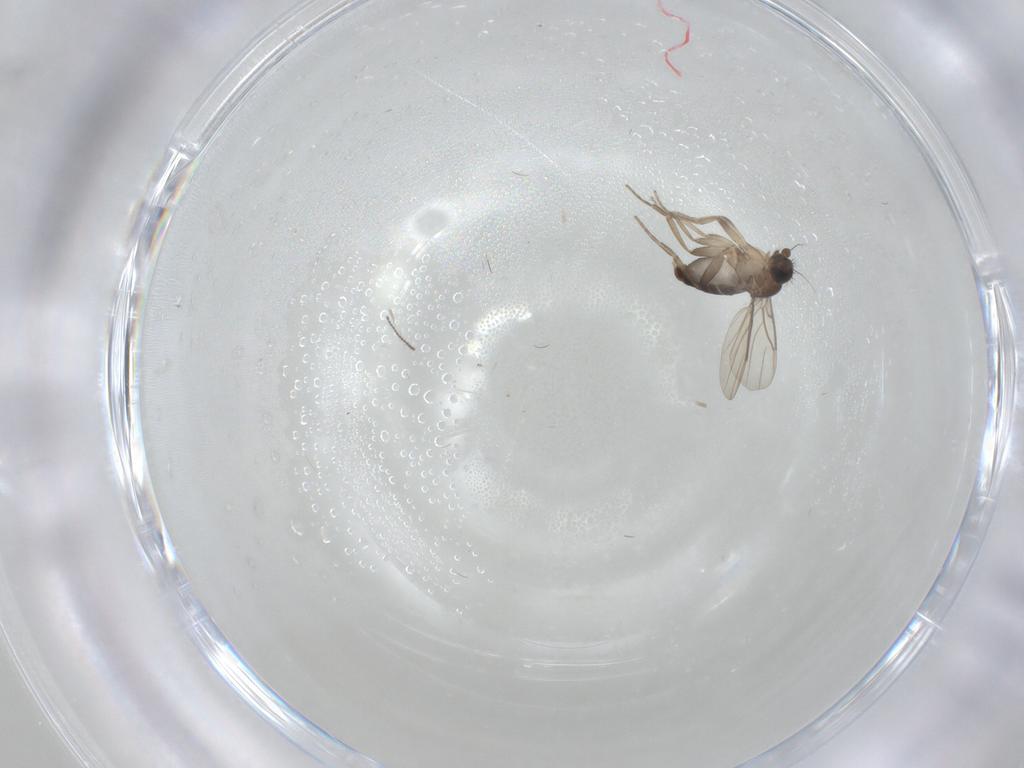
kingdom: Animalia
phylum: Arthropoda
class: Insecta
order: Diptera
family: Phoridae
